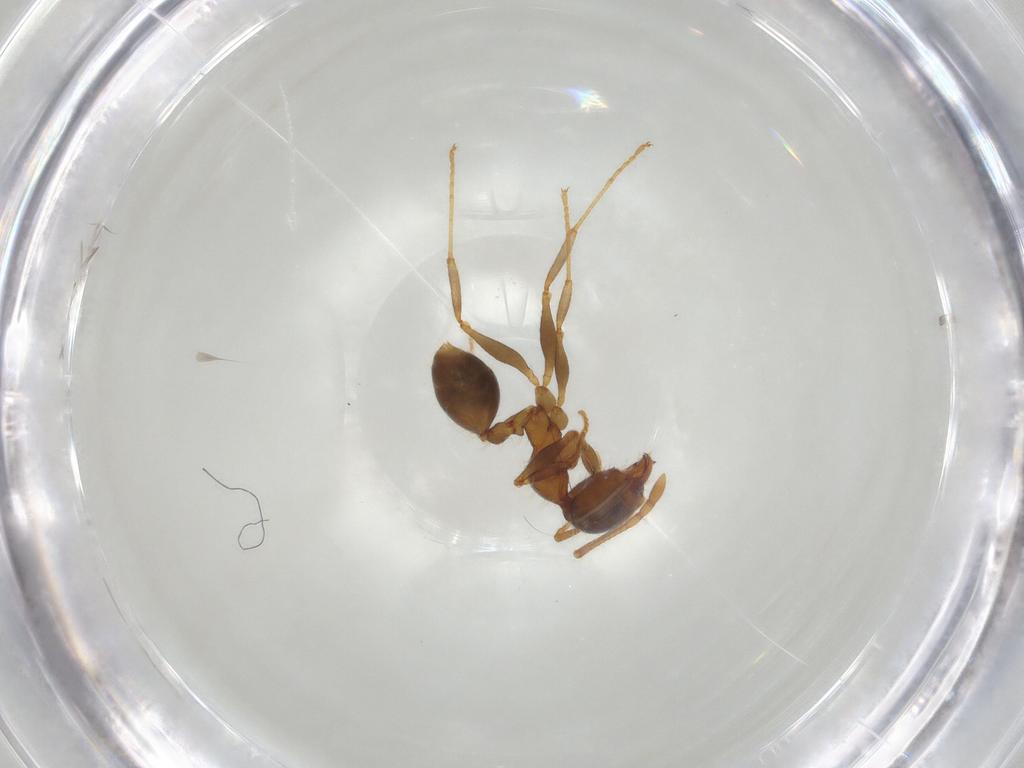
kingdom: Animalia
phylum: Arthropoda
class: Insecta
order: Hymenoptera
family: Formicidae
